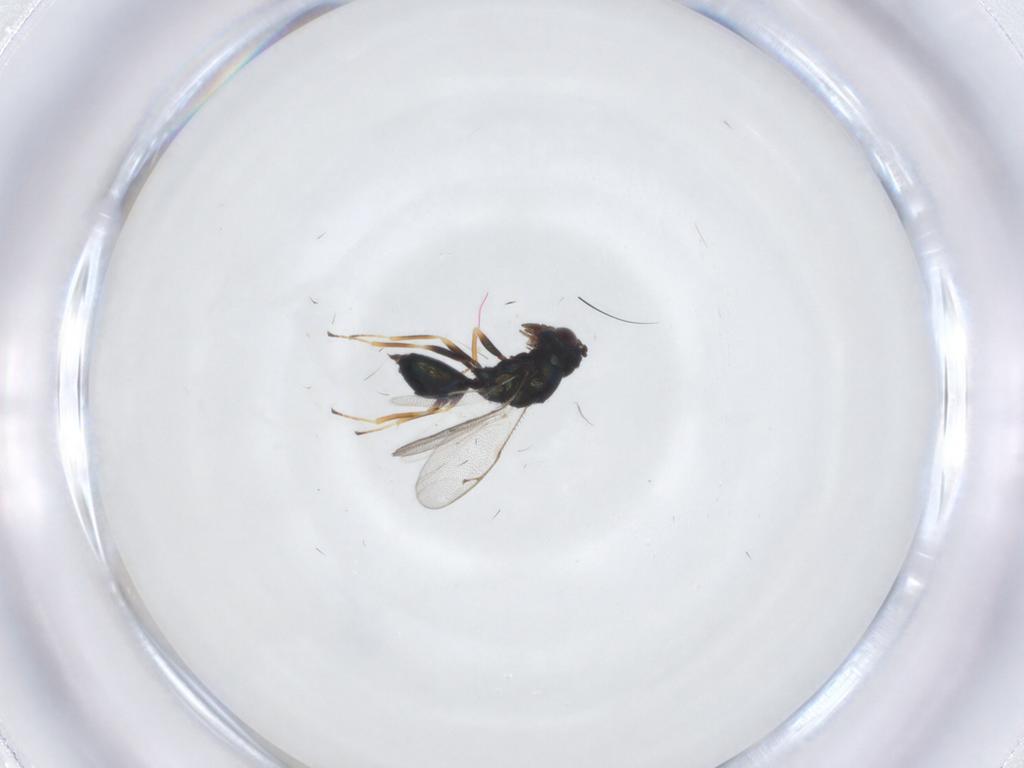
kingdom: Animalia
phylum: Arthropoda
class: Insecta
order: Hymenoptera
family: Pteromalidae
